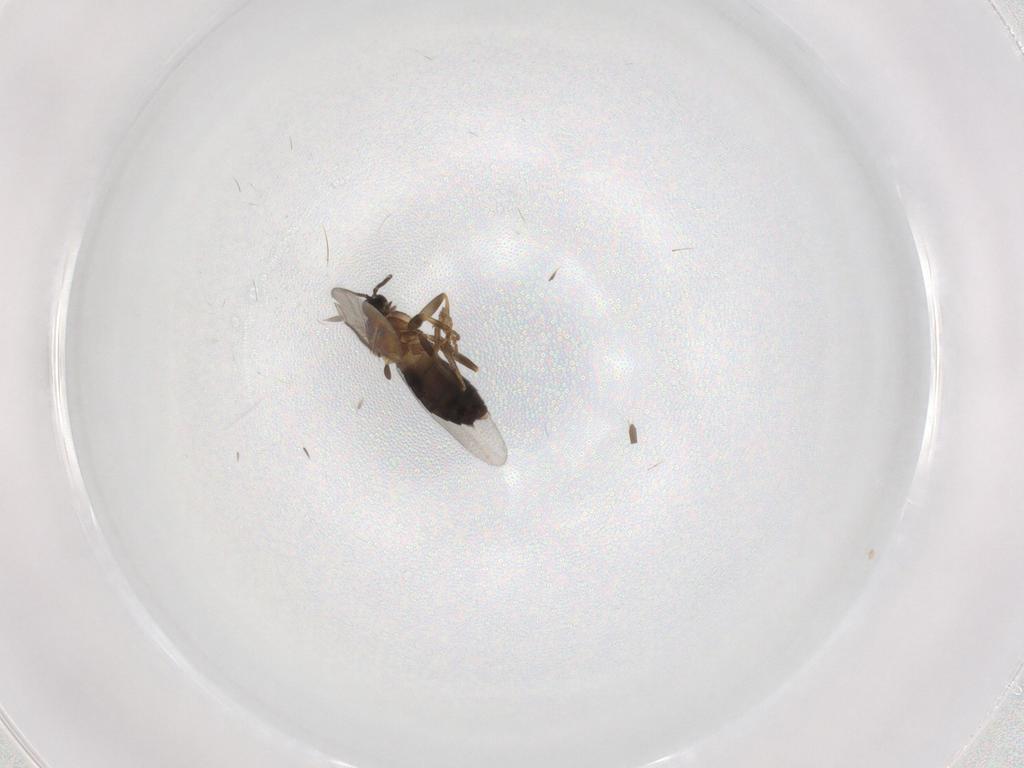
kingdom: Animalia
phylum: Arthropoda
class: Insecta
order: Diptera
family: Scatopsidae
